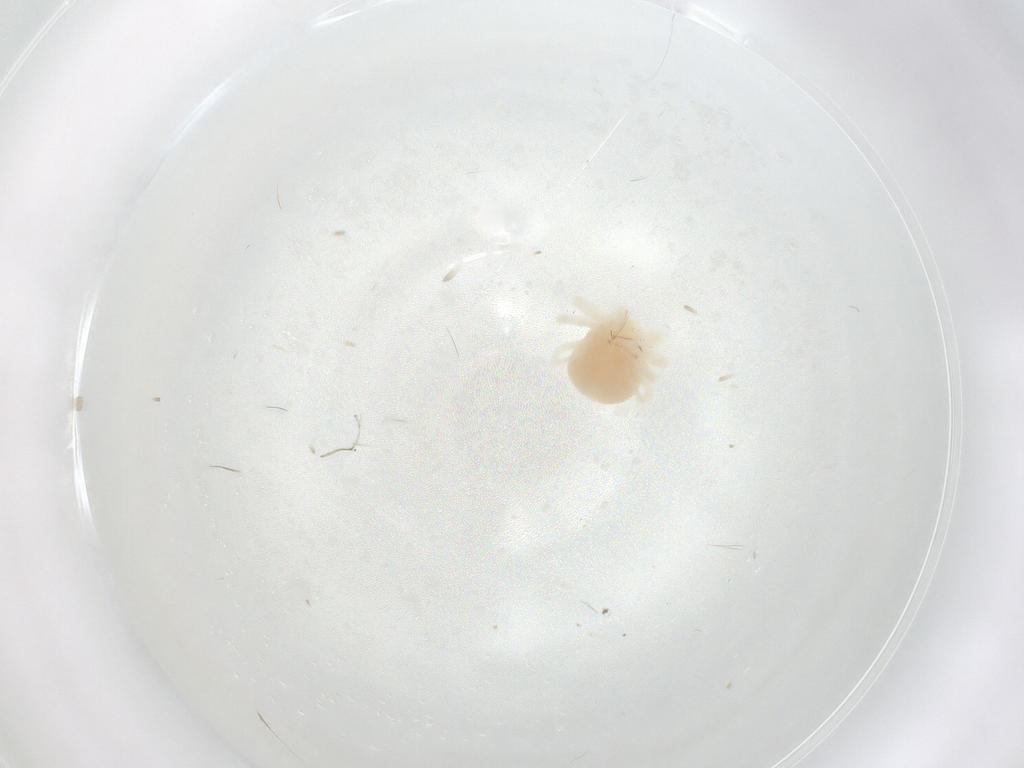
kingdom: Animalia
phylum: Arthropoda
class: Arachnida
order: Trombidiformes
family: Anystidae
